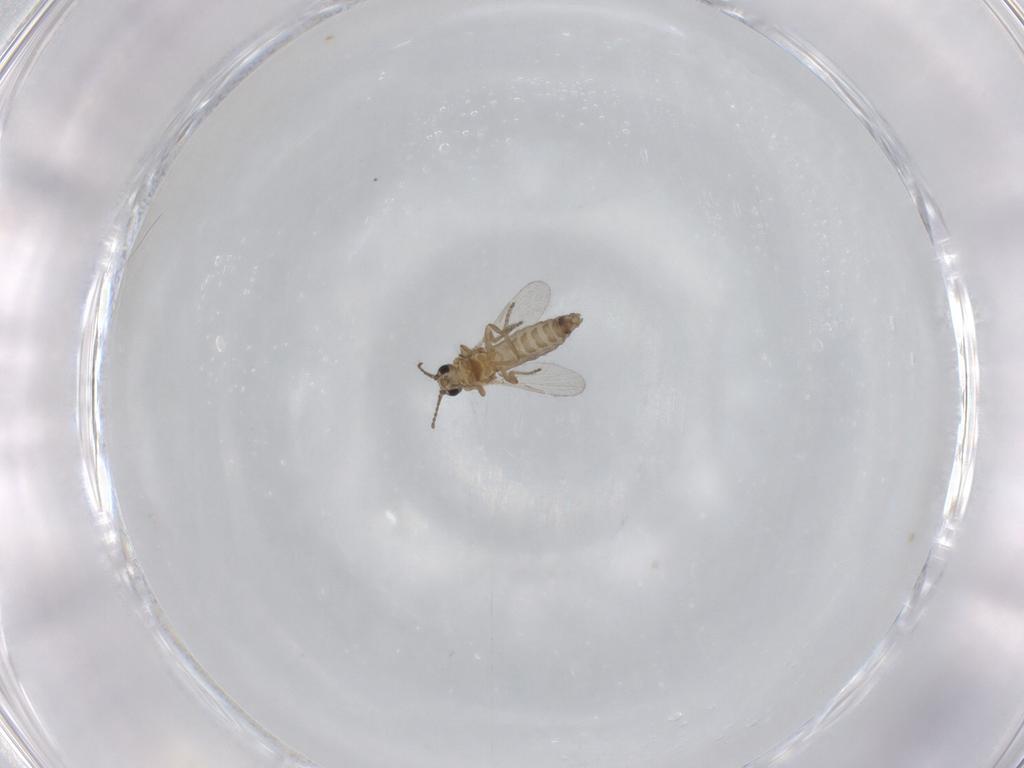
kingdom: Animalia
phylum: Arthropoda
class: Insecta
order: Diptera
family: Ceratopogonidae
